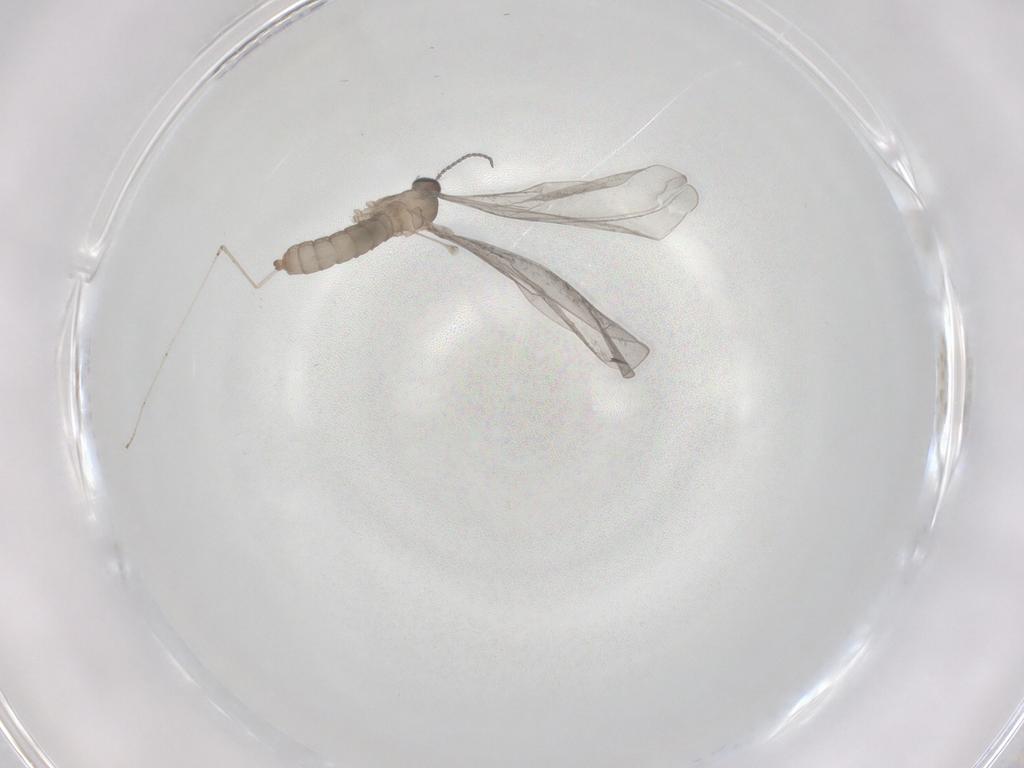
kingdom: Animalia
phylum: Arthropoda
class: Insecta
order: Diptera
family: Cecidomyiidae
